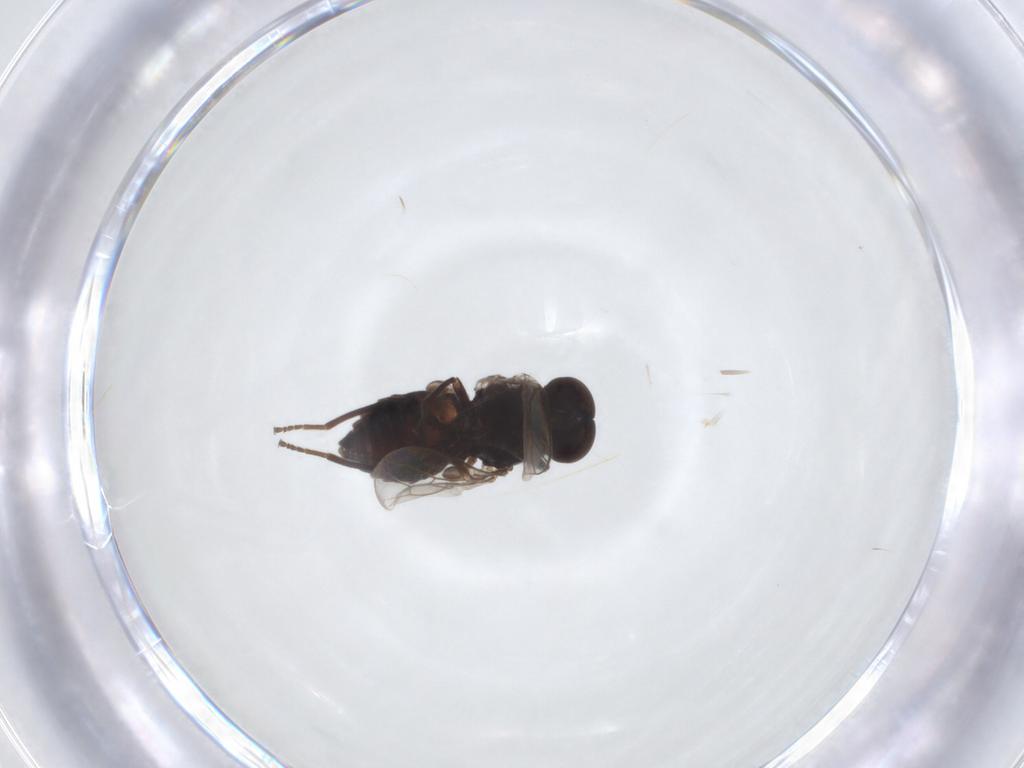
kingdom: Animalia
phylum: Arthropoda
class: Insecta
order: Diptera
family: Scenopinidae
